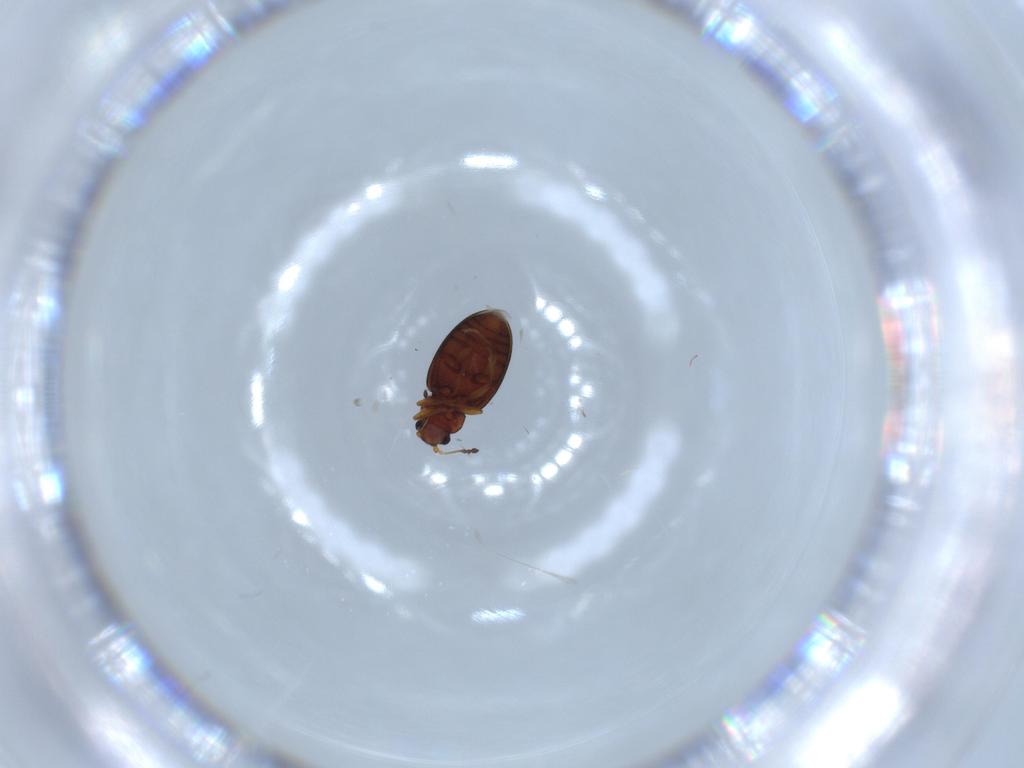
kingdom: Animalia
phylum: Arthropoda
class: Insecta
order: Coleoptera
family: Latridiidae
